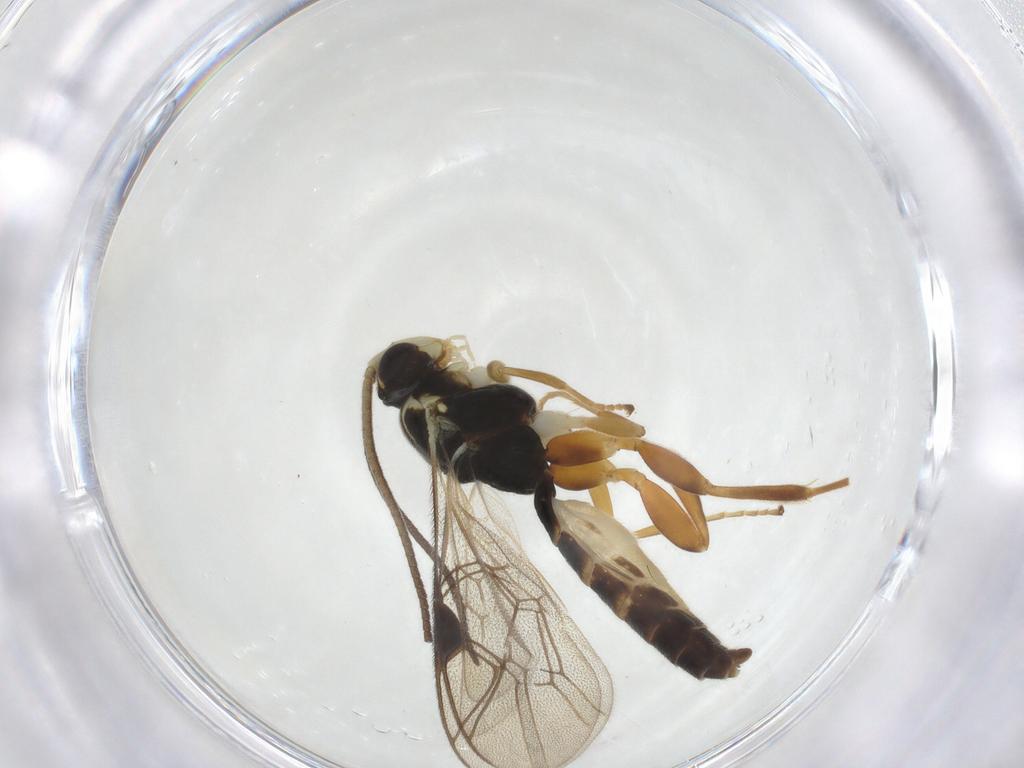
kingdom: Animalia
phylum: Arthropoda
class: Insecta
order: Hymenoptera
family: Ichneumonidae
